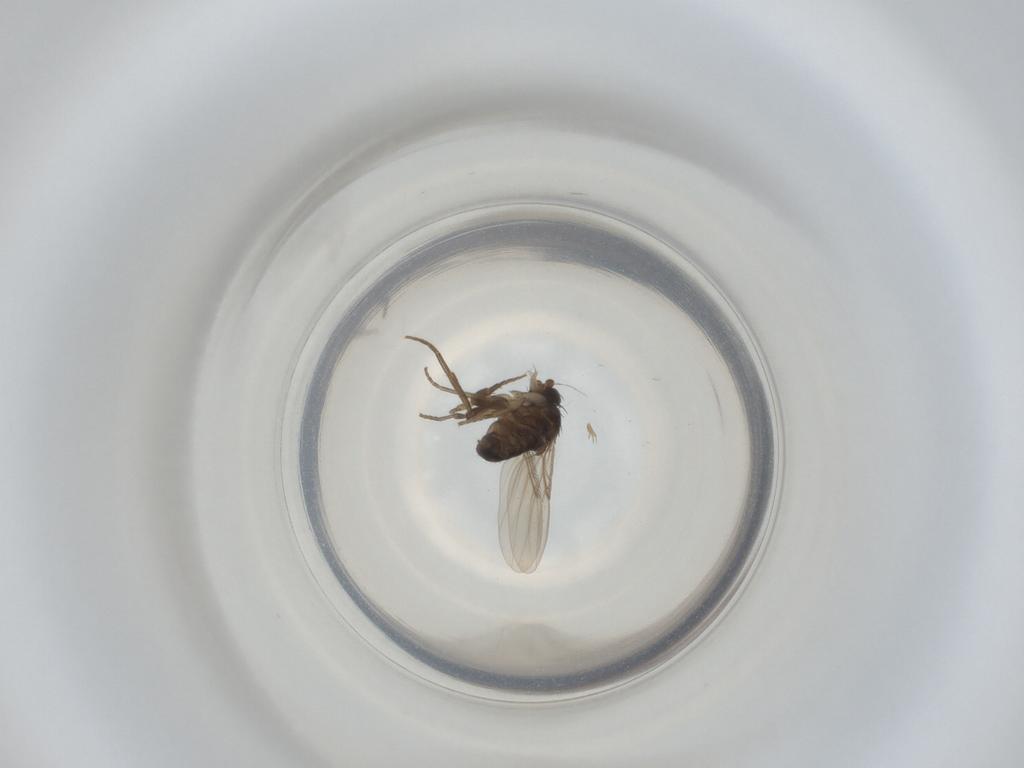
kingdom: Animalia
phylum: Arthropoda
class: Insecta
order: Diptera
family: Phoridae
